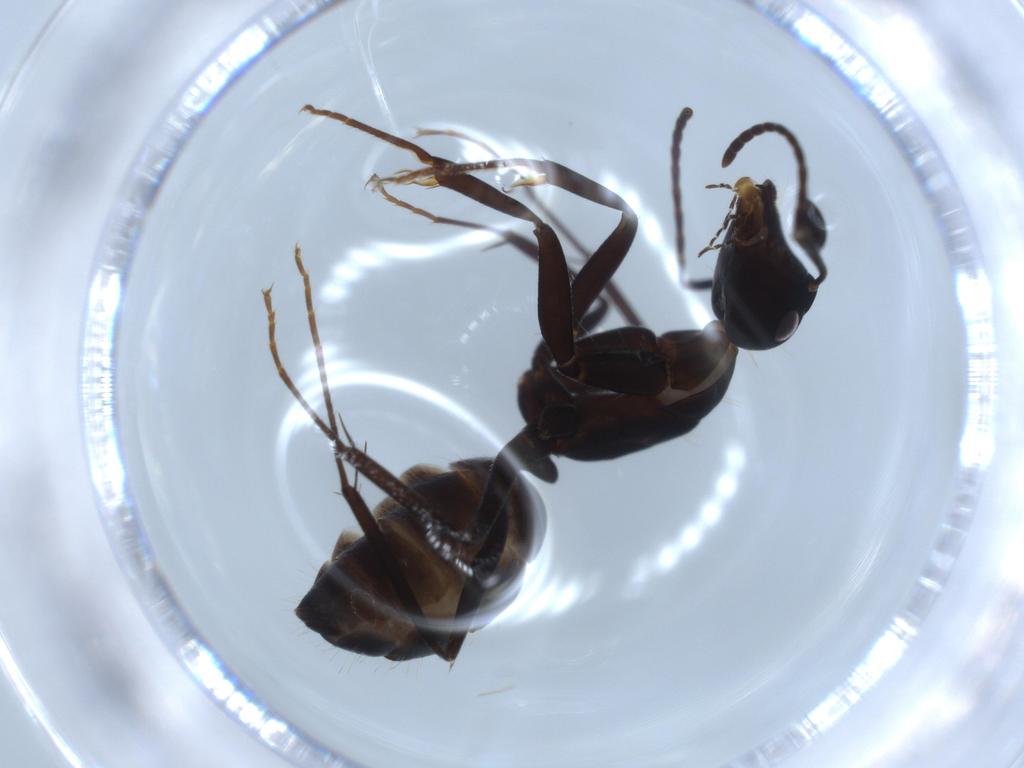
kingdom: Animalia
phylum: Arthropoda
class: Insecta
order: Hymenoptera
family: Formicidae
